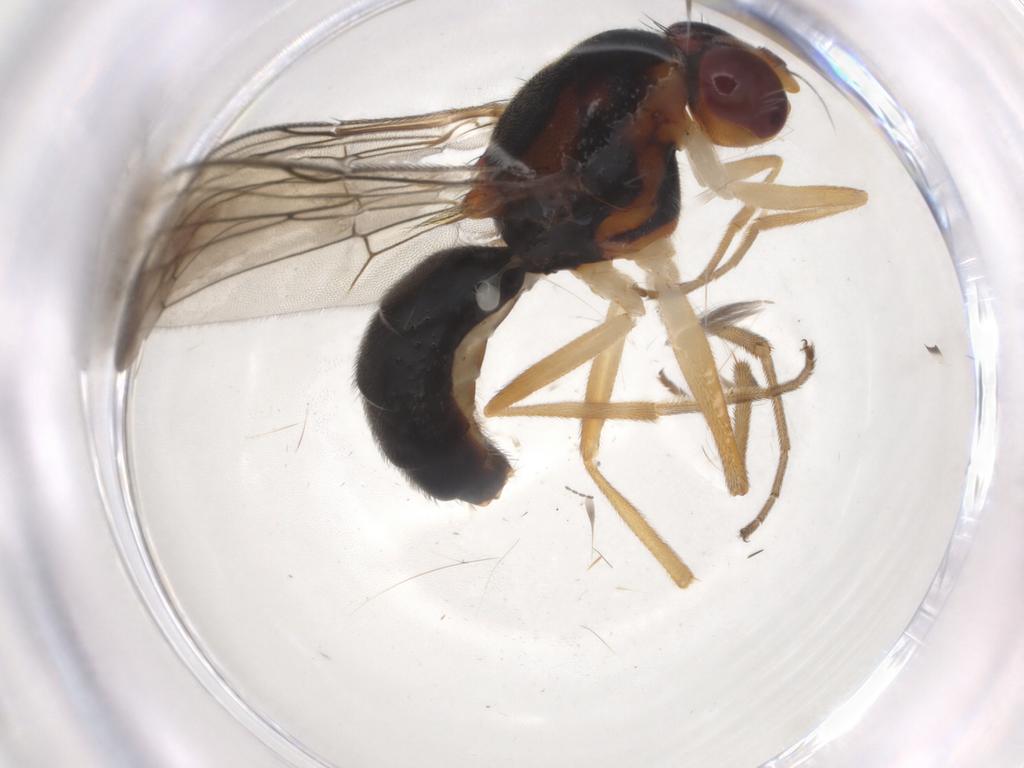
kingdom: Animalia
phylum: Arthropoda
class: Insecta
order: Diptera
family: Psilidae
